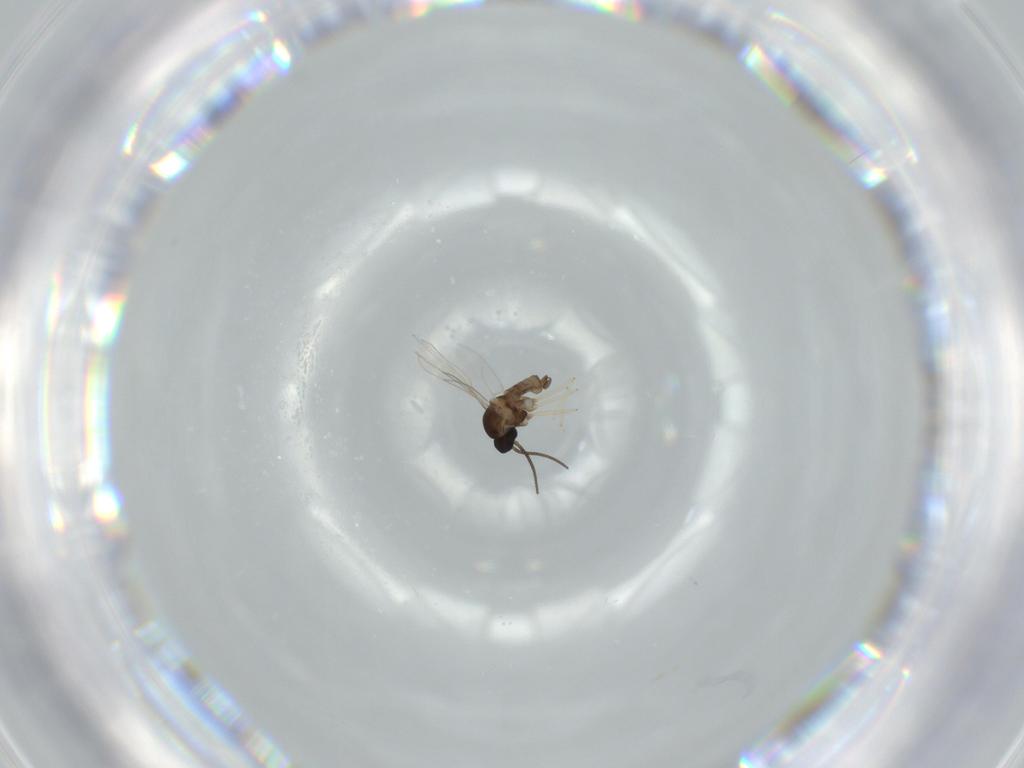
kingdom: Animalia
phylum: Arthropoda
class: Insecta
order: Diptera
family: Cecidomyiidae
